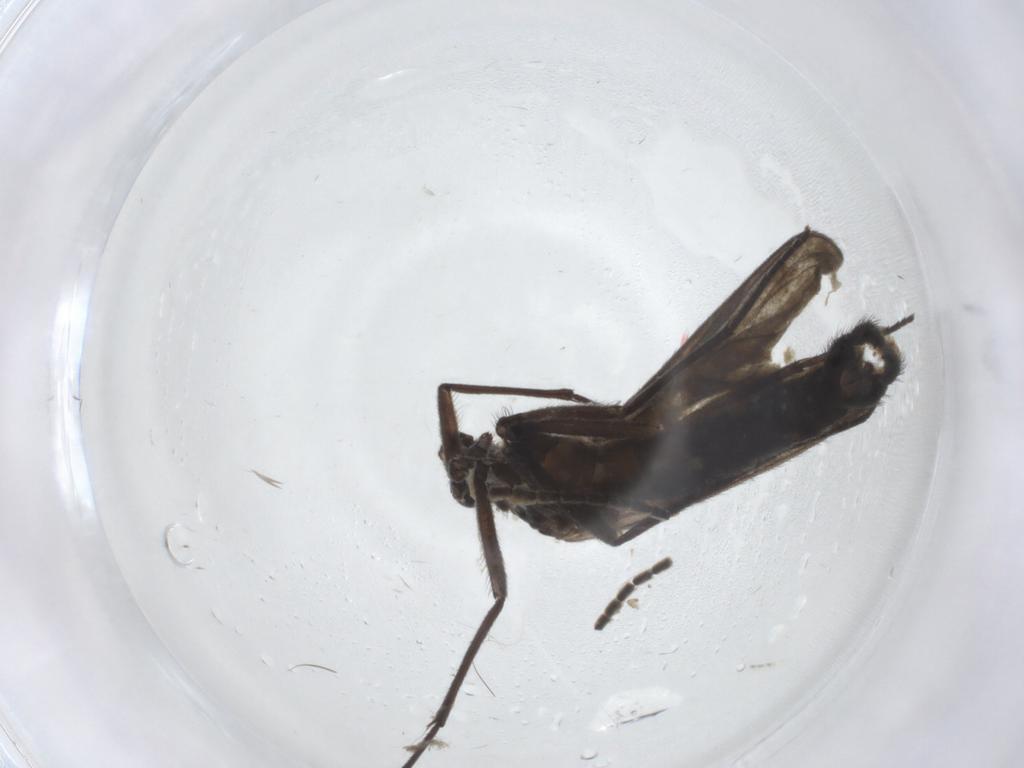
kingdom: Animalia
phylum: Arthropoda
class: Insecta
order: Diptera
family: Cecidomyiidae
